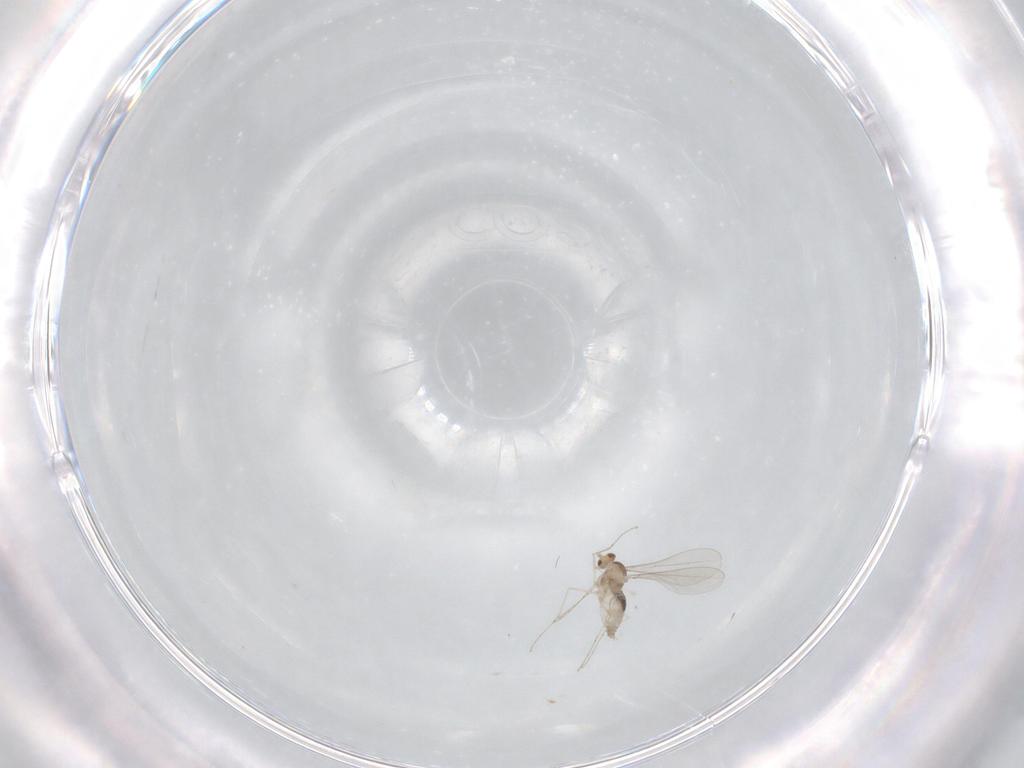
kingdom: Animalia
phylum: Arthropoda
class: Insecta
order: Diptera
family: Cecidomyiidae
